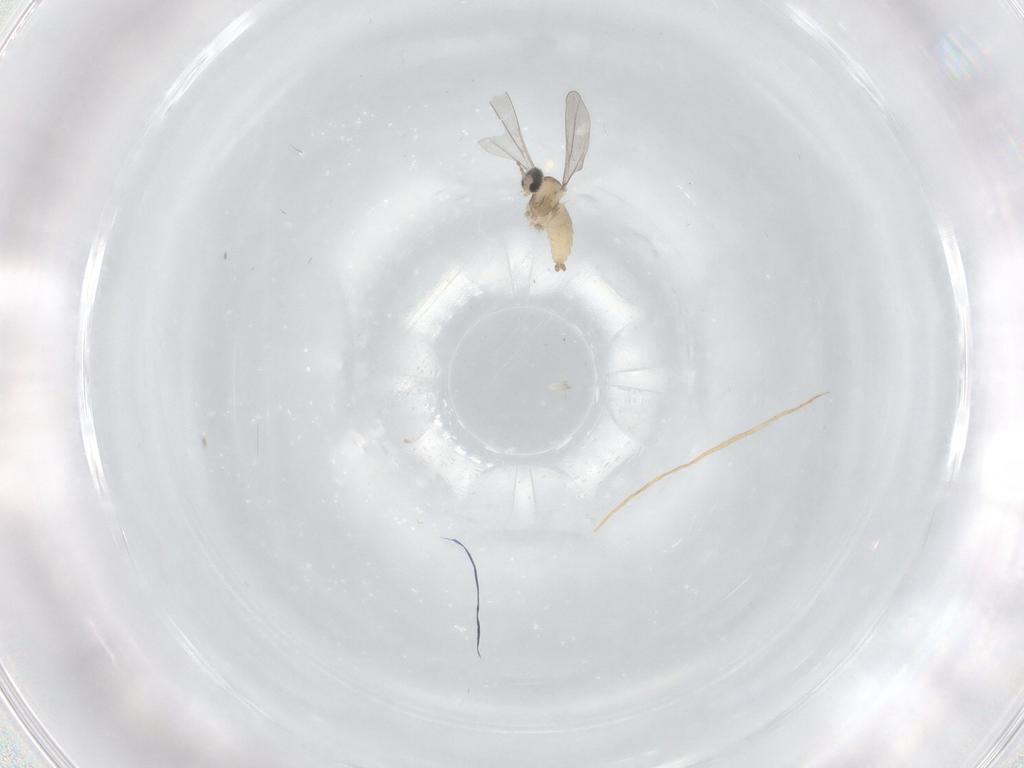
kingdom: Animalia
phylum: Arthropoda
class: Insecta
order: Diptera
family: Cecidomyiidae
